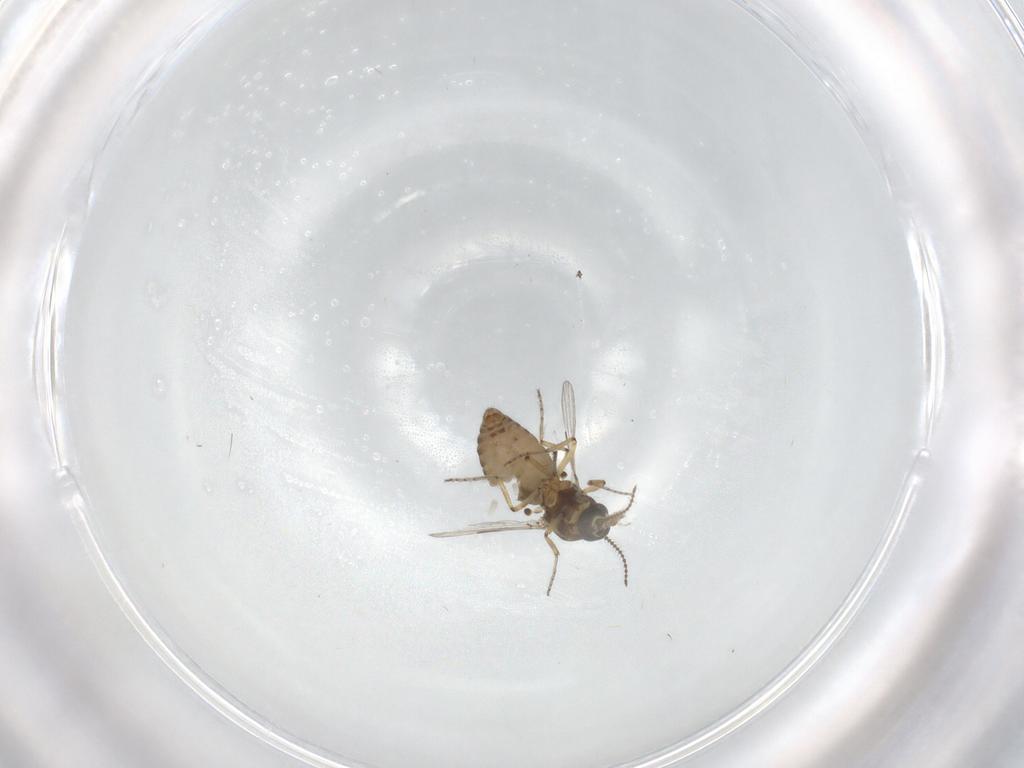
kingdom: Animalia
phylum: Arthropoda
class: Insecta
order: Diptera
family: Ceratopogonidae
